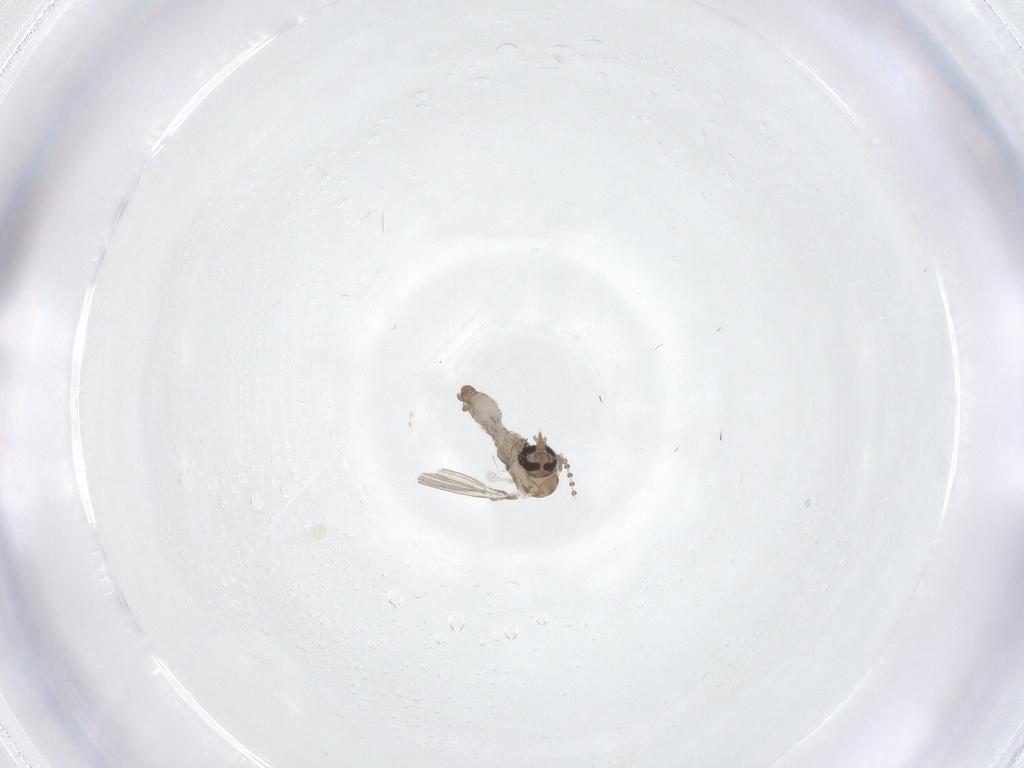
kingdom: Animalia
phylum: Arthropoda
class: Insecta
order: Diptera
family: Psychodidae
